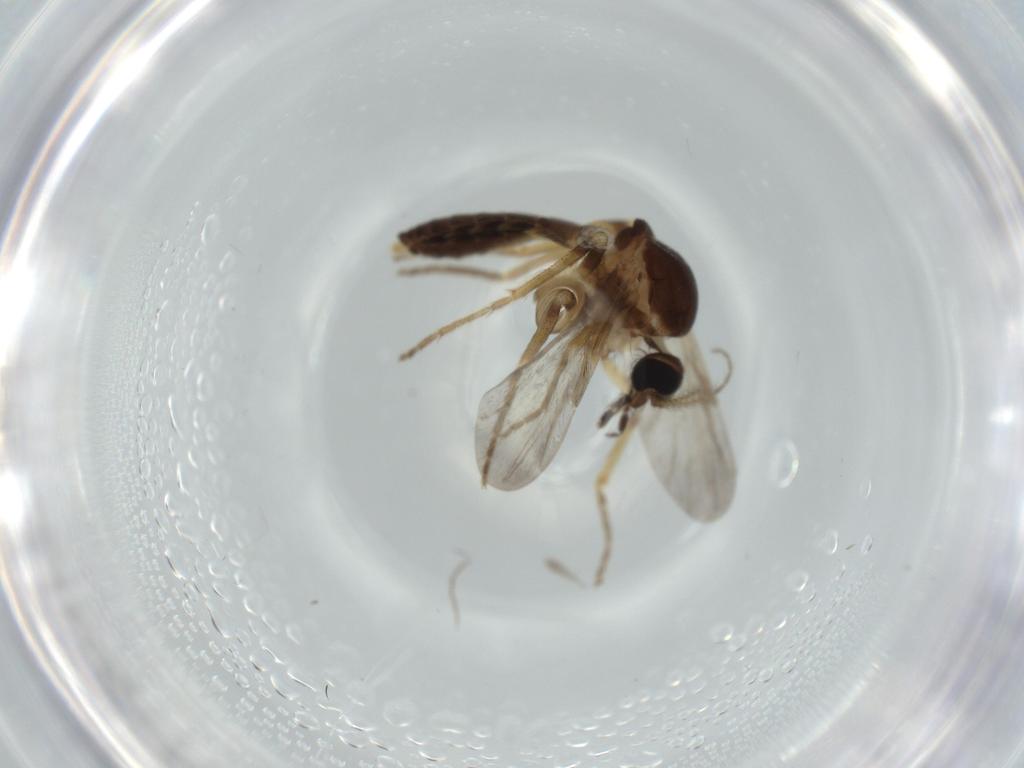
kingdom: Animalia
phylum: Arthropoda
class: Insecta
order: Diptera
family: Ceratopogonidae
